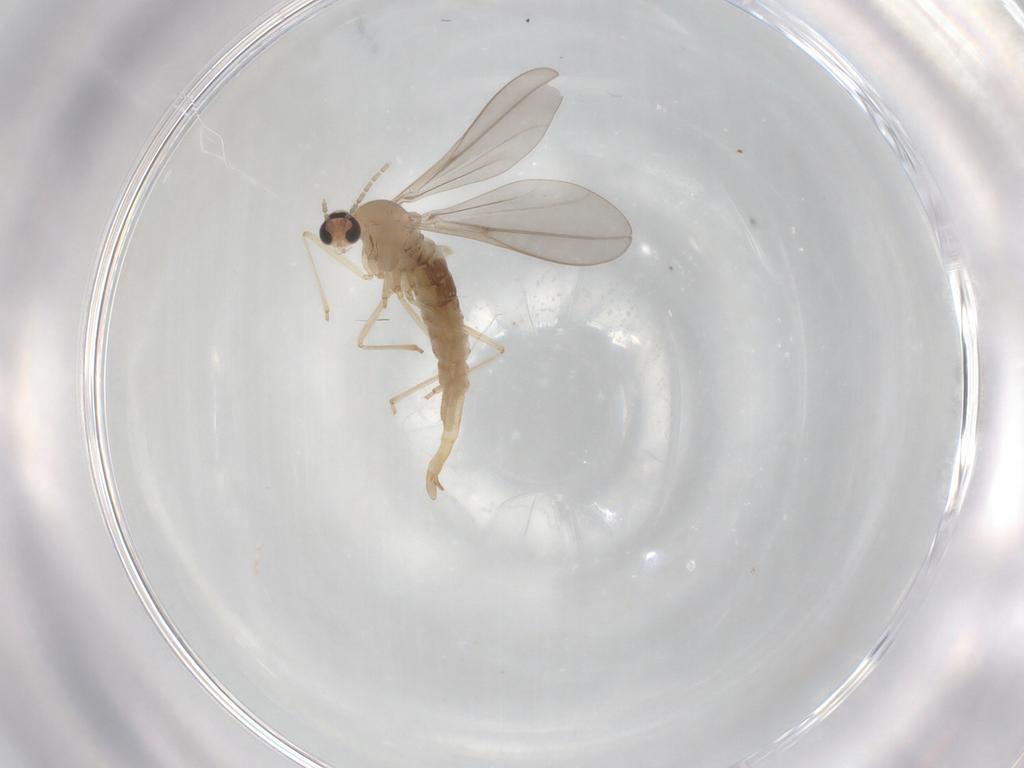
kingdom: Animalia
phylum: Arthropoda
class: Insecta
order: Diptera
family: Cecidomyiidae
